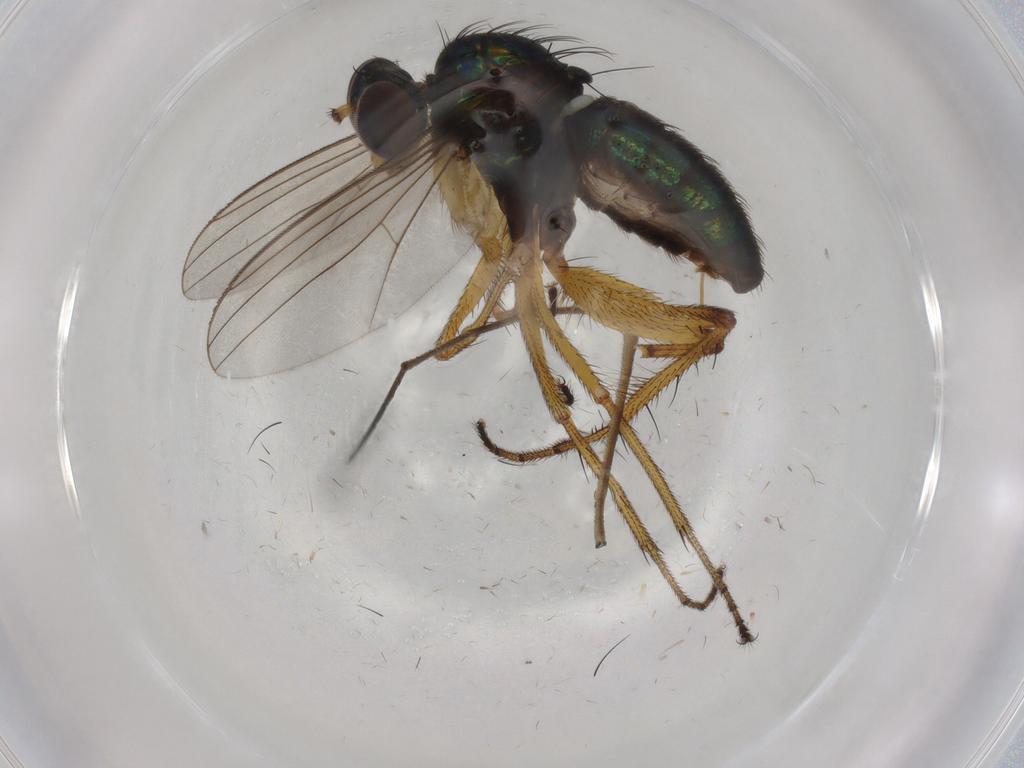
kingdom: Animalia
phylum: Arthropoda
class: Insecta
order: Diptera
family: Limoniidae
